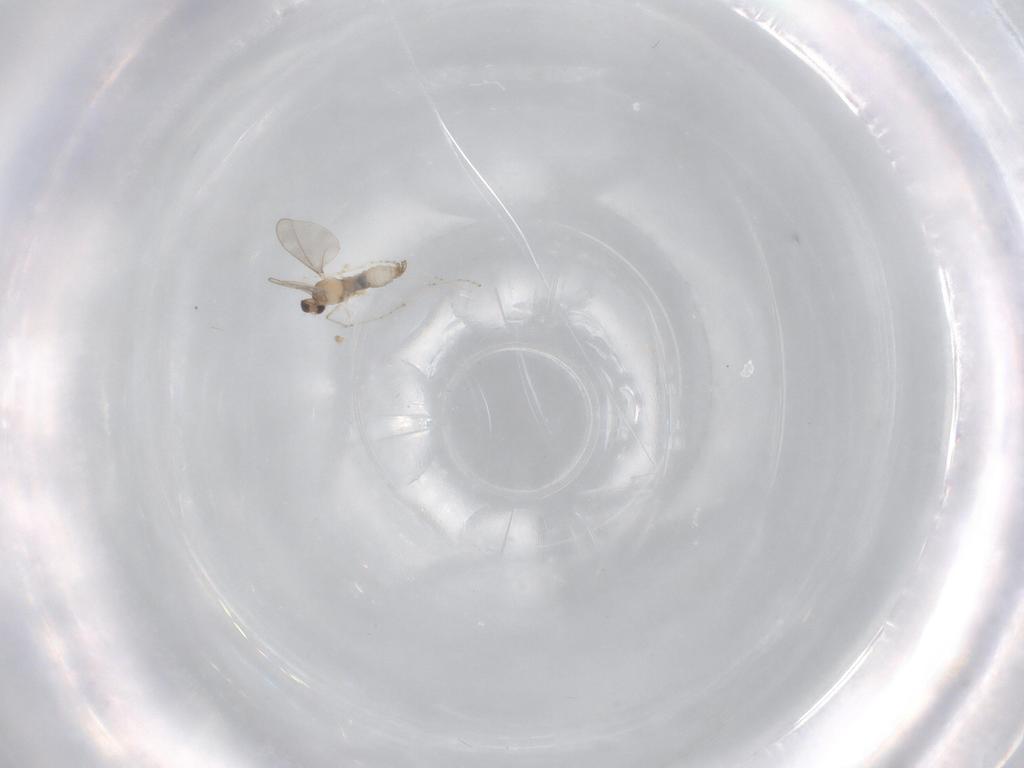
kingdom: Animalia
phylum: Arthropoda
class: Insecta
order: Diptera
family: Cecidomyiidae
